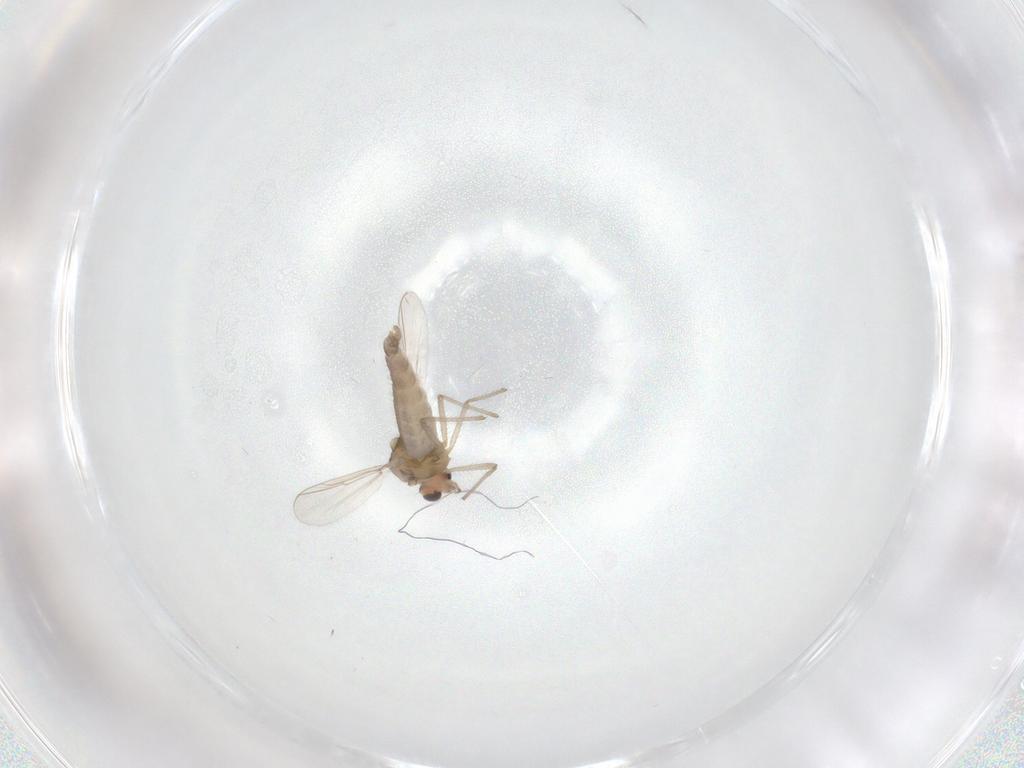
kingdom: Animalia
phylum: Arthropoda
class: Insecta
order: Diptera
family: Chironomidae
